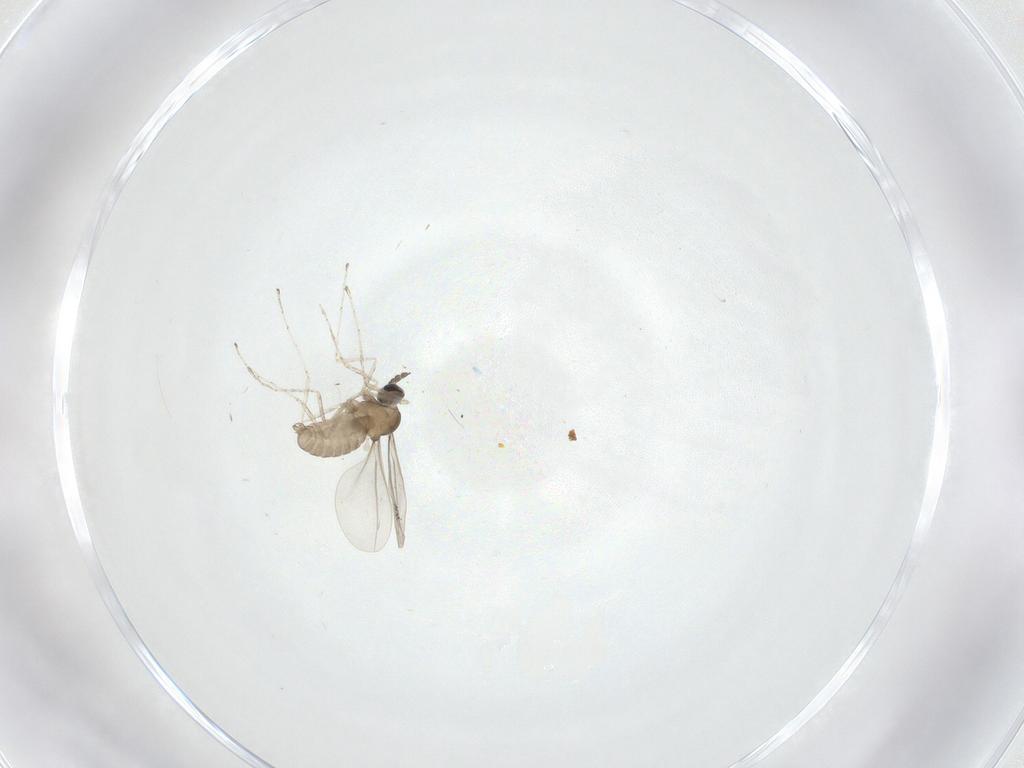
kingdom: Animalia
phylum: Arthropoda
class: Insecta
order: Diptera
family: Cecidomyiidae
